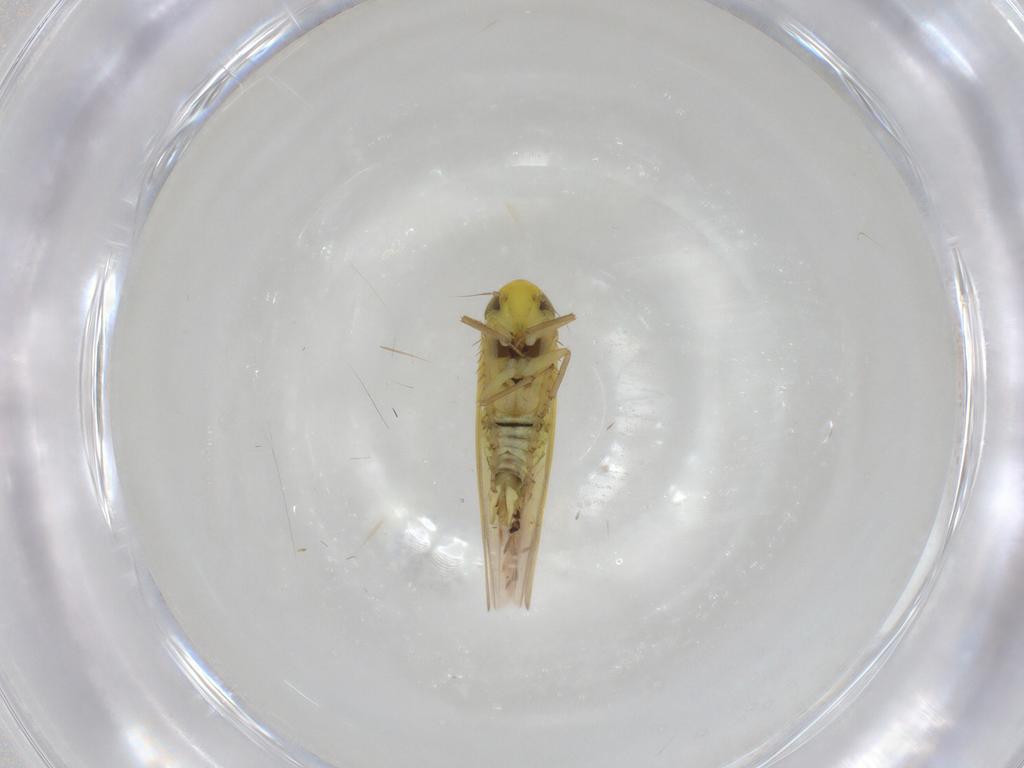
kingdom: Animalia
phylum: Arthropoda
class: Insecta
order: Hemiptera
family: Cicadellidae
